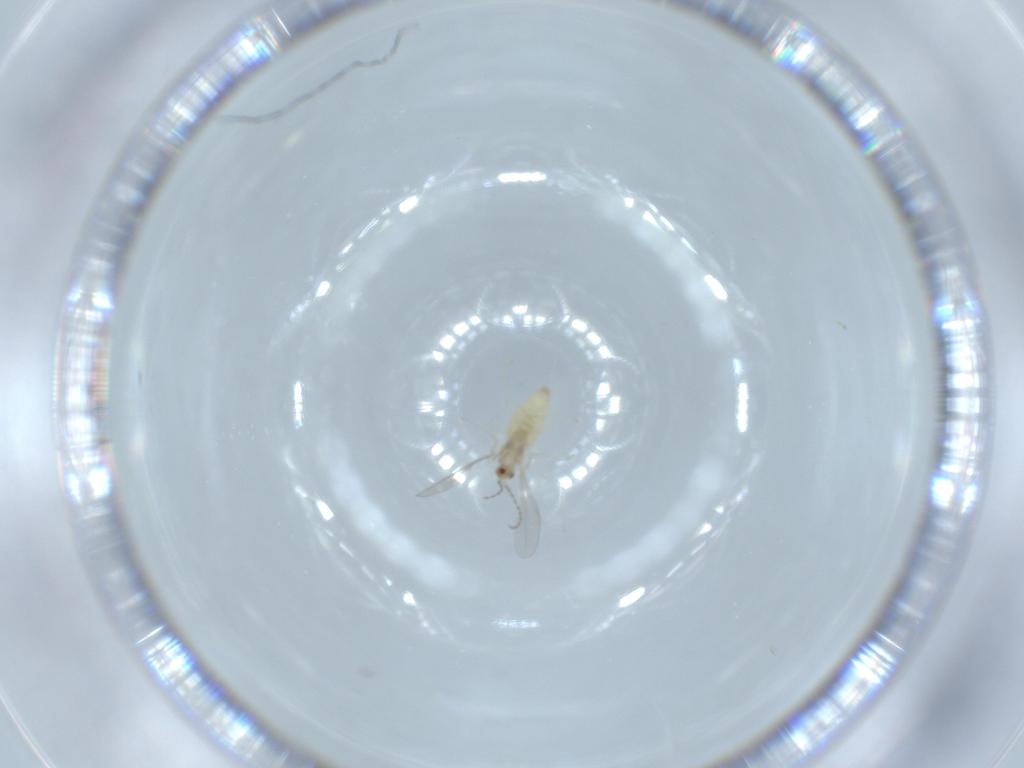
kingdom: Animalia
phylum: Arthropoda
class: Insecta
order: Diptera
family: Cecidomyiidae
